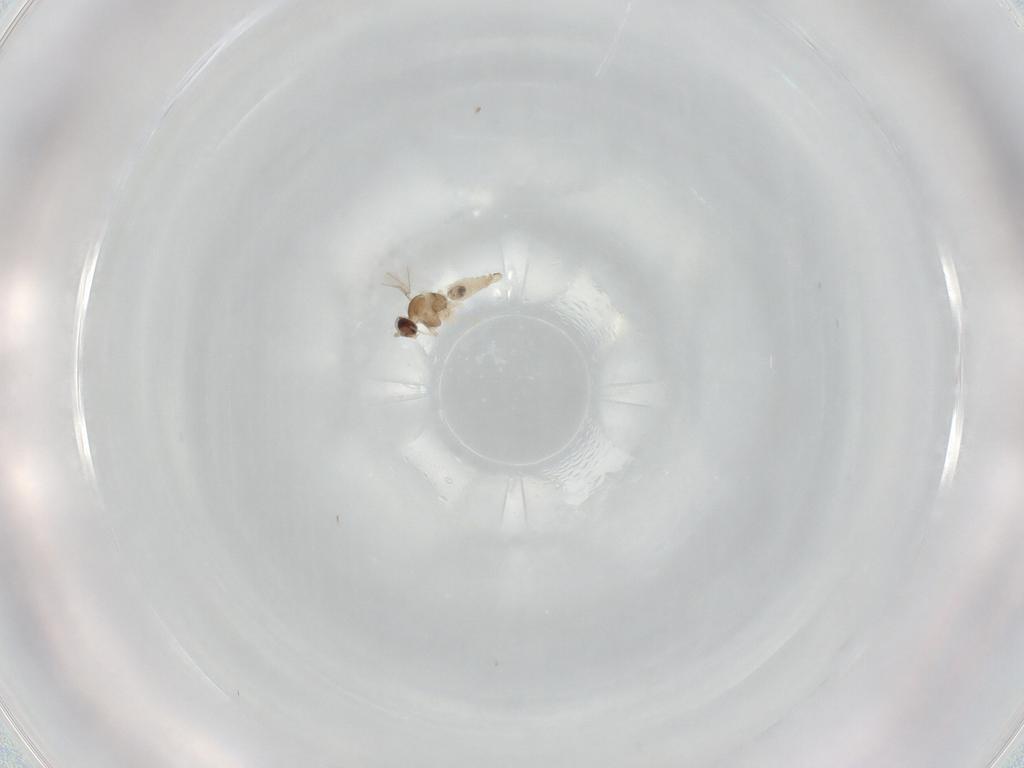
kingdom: Animalia
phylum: Arthropoda
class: Insecta
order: Diptera
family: Cecidomyiidae
